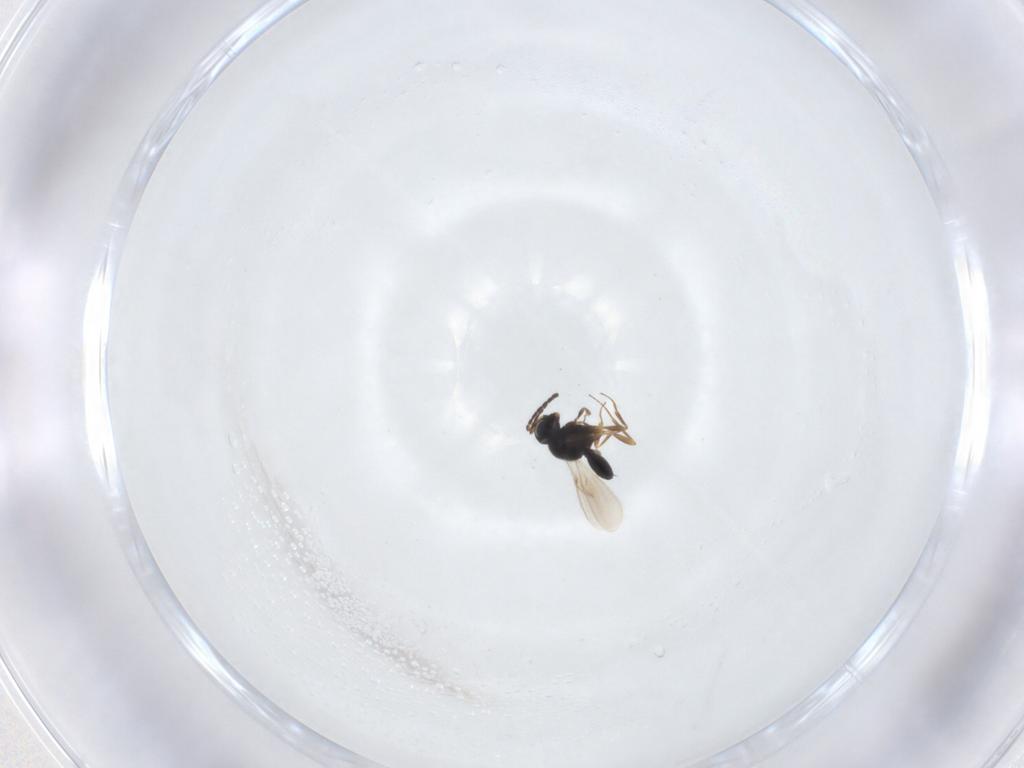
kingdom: Animalia
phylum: Arthropoda
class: Insecta
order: Hymenoptera
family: Scelionidae
